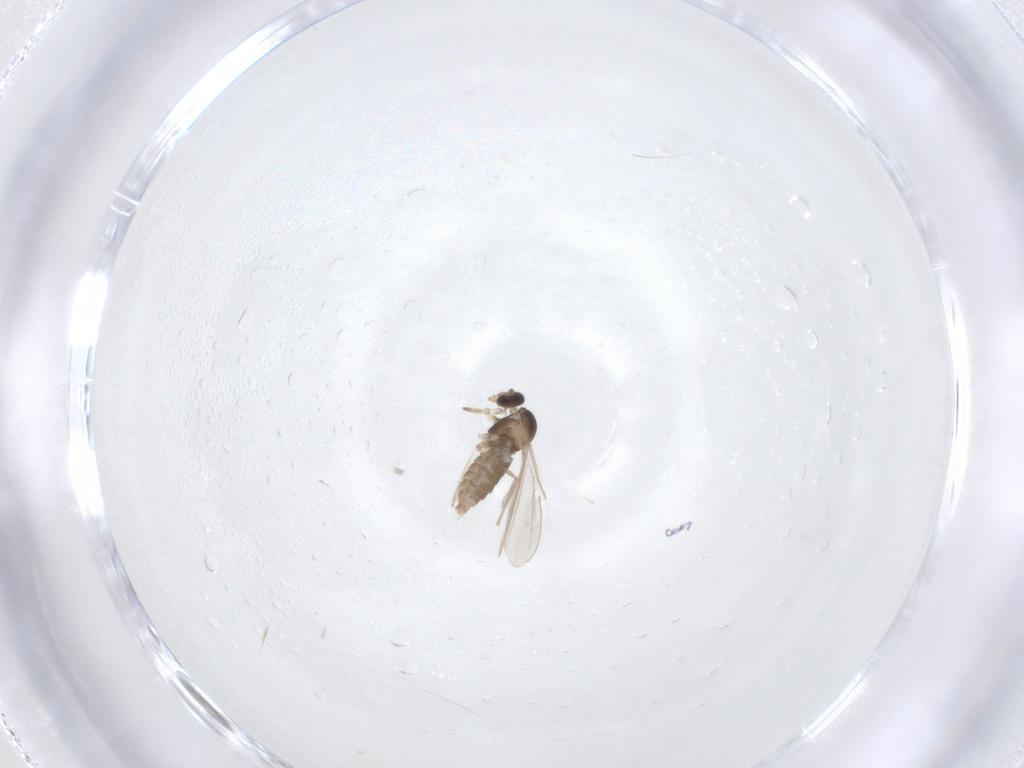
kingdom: Animalia
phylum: Arthropoda
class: Insecta
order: Diptera
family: Cecidomyiidae
